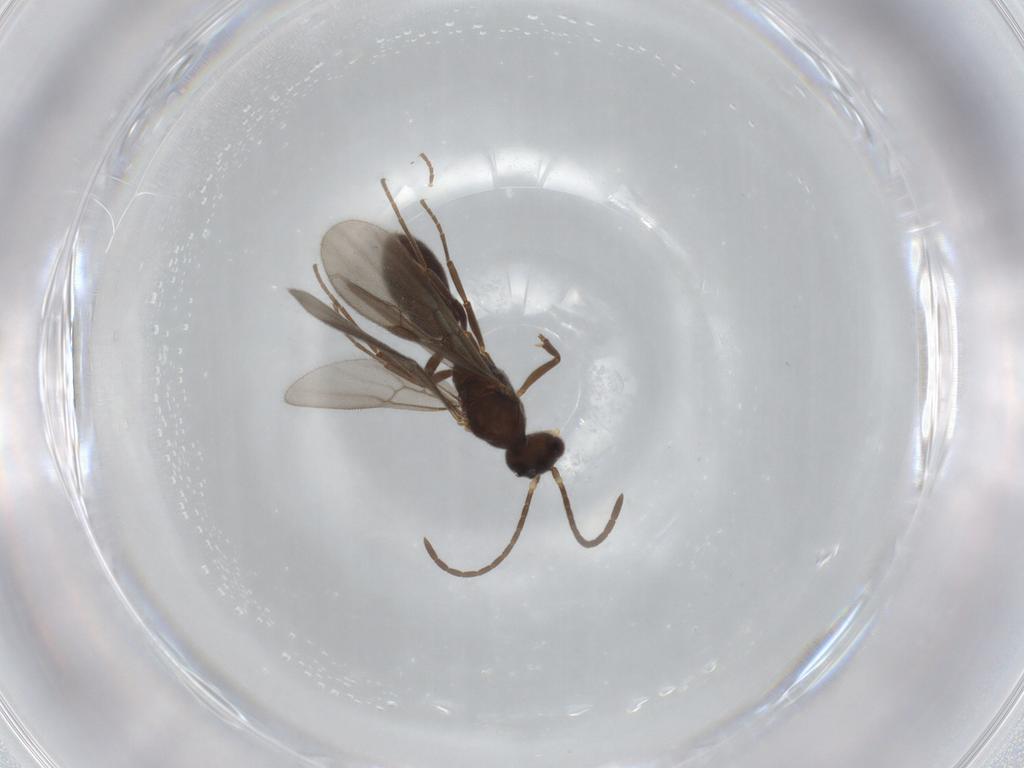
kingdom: Animalia
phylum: Arthropoda
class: Insecta
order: Hymenoptera
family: Formicidae
